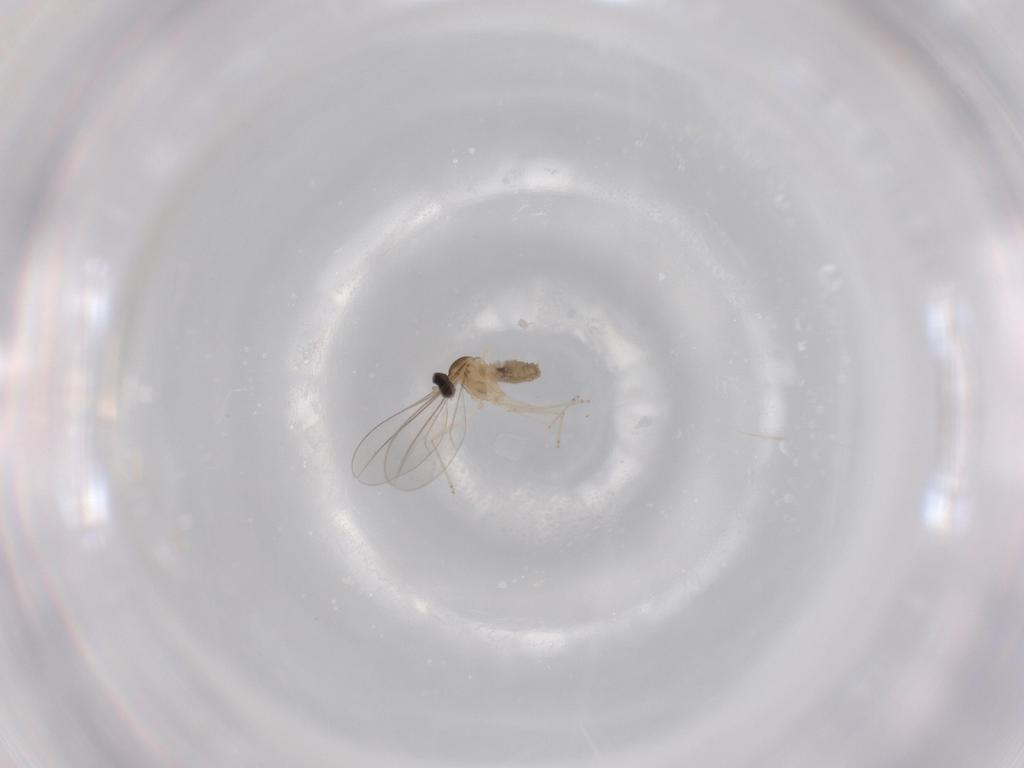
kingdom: Animalia
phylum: Arthropoda
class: Insecta
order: Diptera
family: Cecidomyiidae
